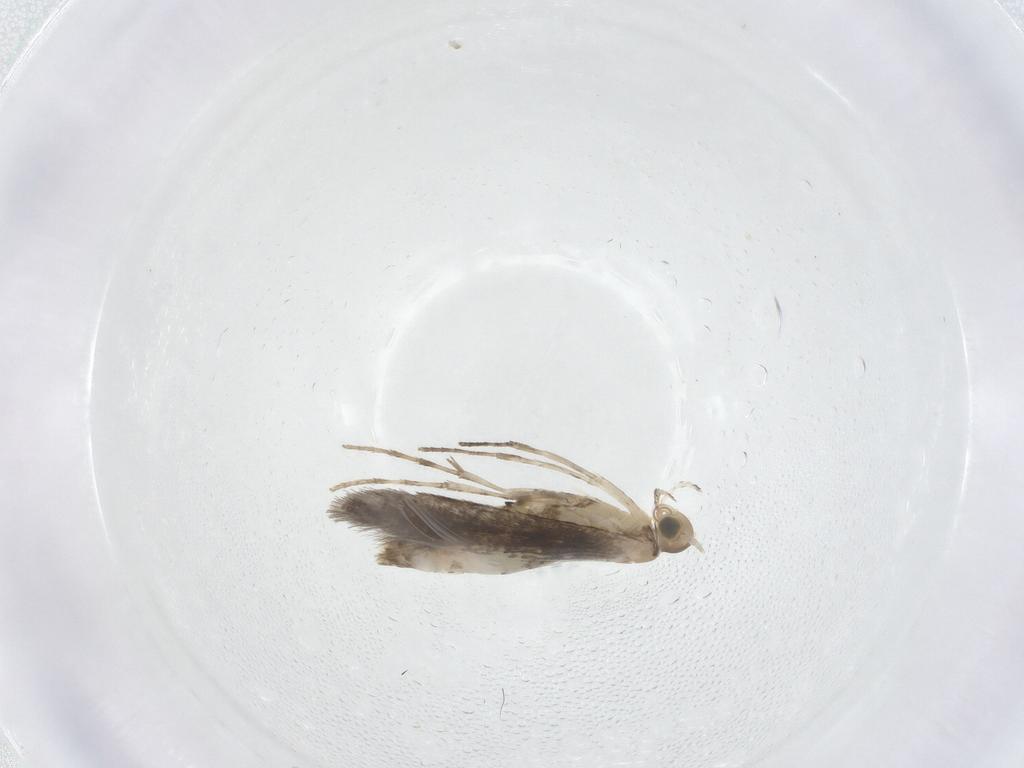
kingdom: Animalia
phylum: Arthropoda
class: Insecta
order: Lepidoptera
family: Gracillariidae
